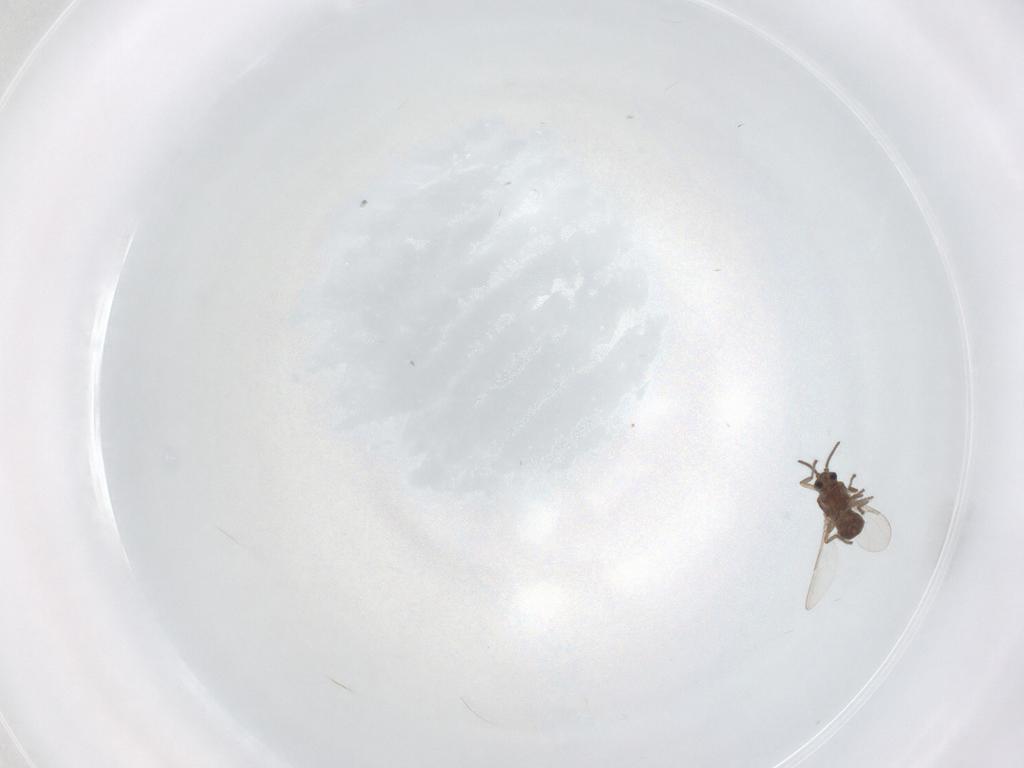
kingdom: Animalia
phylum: Arthropoda
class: Insecta
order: Diptera
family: Ceratopogonidae
